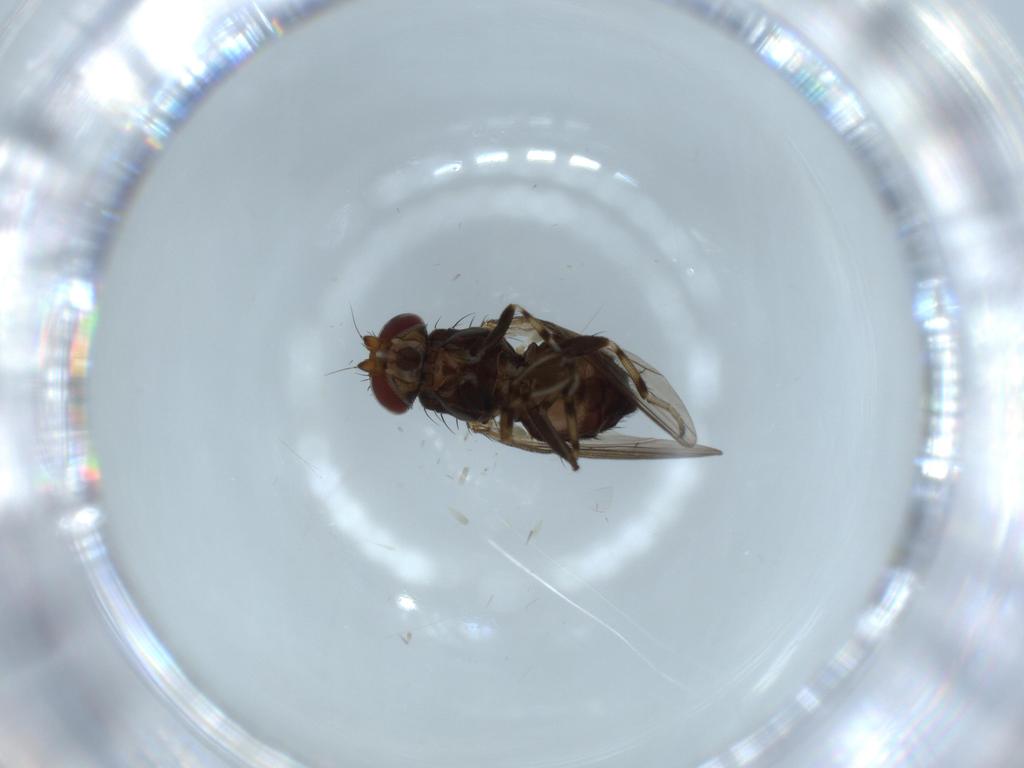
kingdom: Animalia
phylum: Arthropoda
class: Insecta
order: Diptera
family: Heleomyzidae
